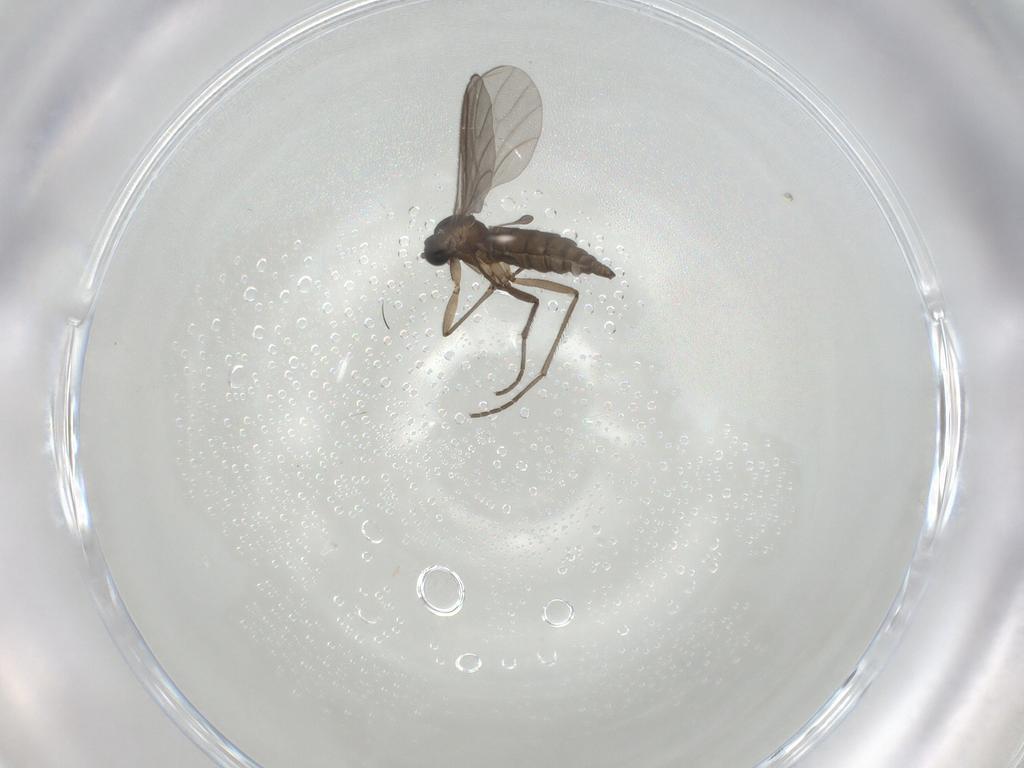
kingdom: Animalia
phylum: Arthropoda
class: Insecta
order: Diptera
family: Sciaridae
